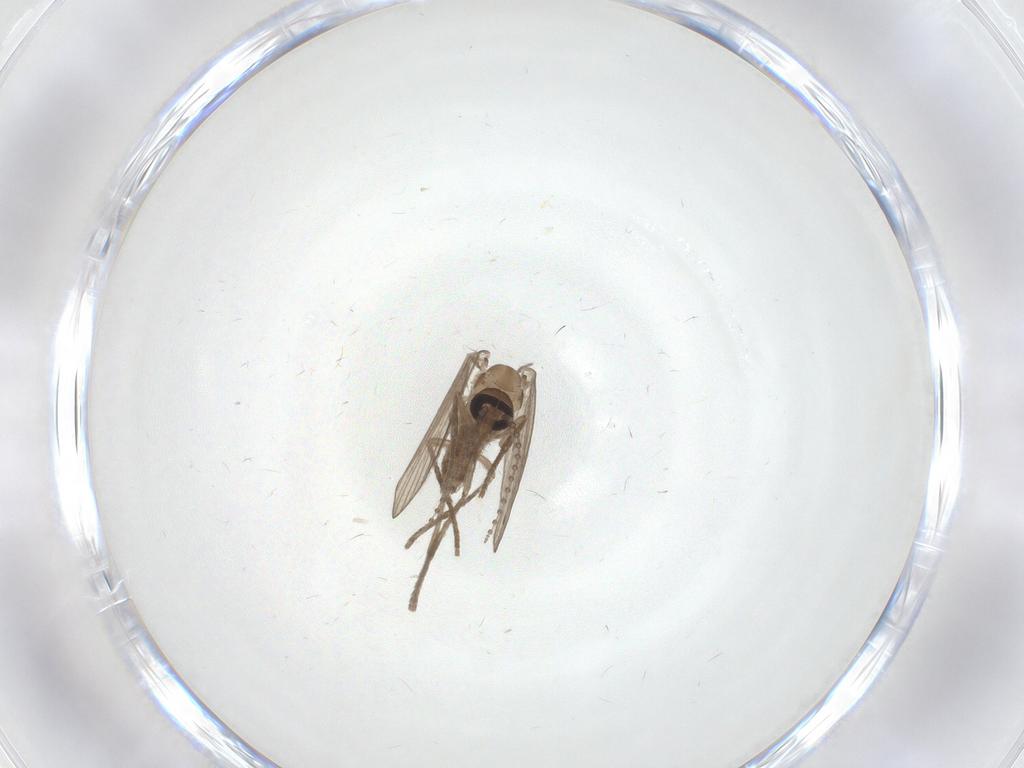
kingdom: Animalia
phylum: Arthropoda
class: Insecta
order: Diptera
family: Psychodidae
